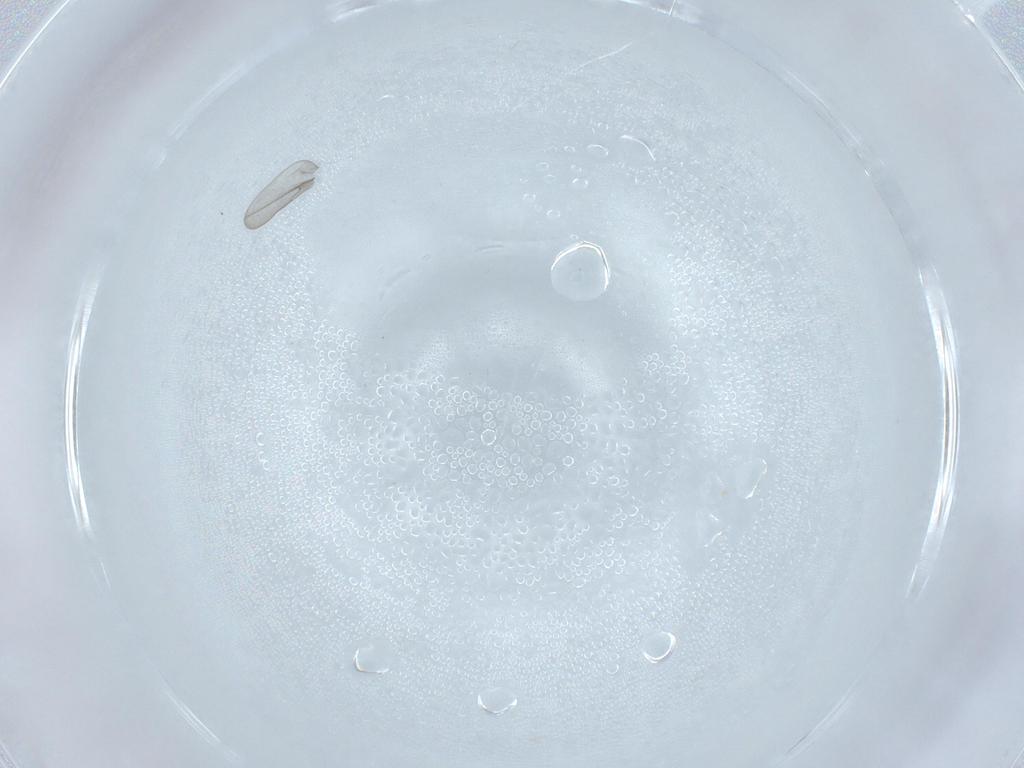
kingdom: Animalia
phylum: Arthropoda
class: Insecta
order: Diptera
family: Cecidomyiidae
